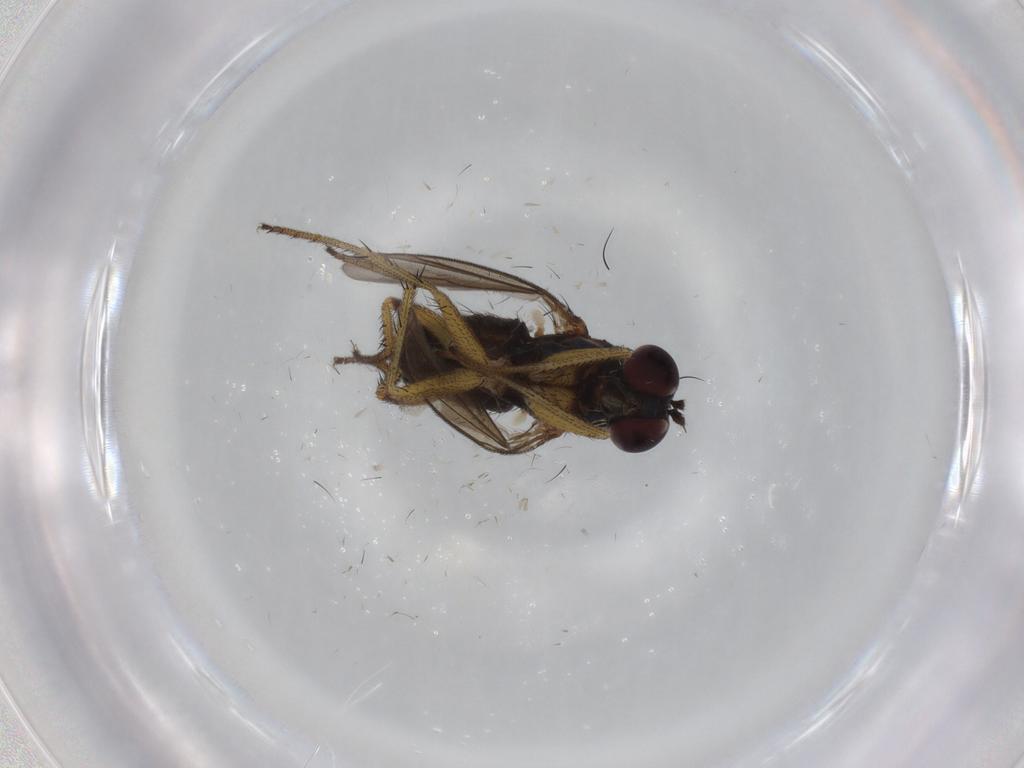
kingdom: Animalia
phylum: Arthropoda
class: Insecta
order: Diptera
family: Dolichopodidae
